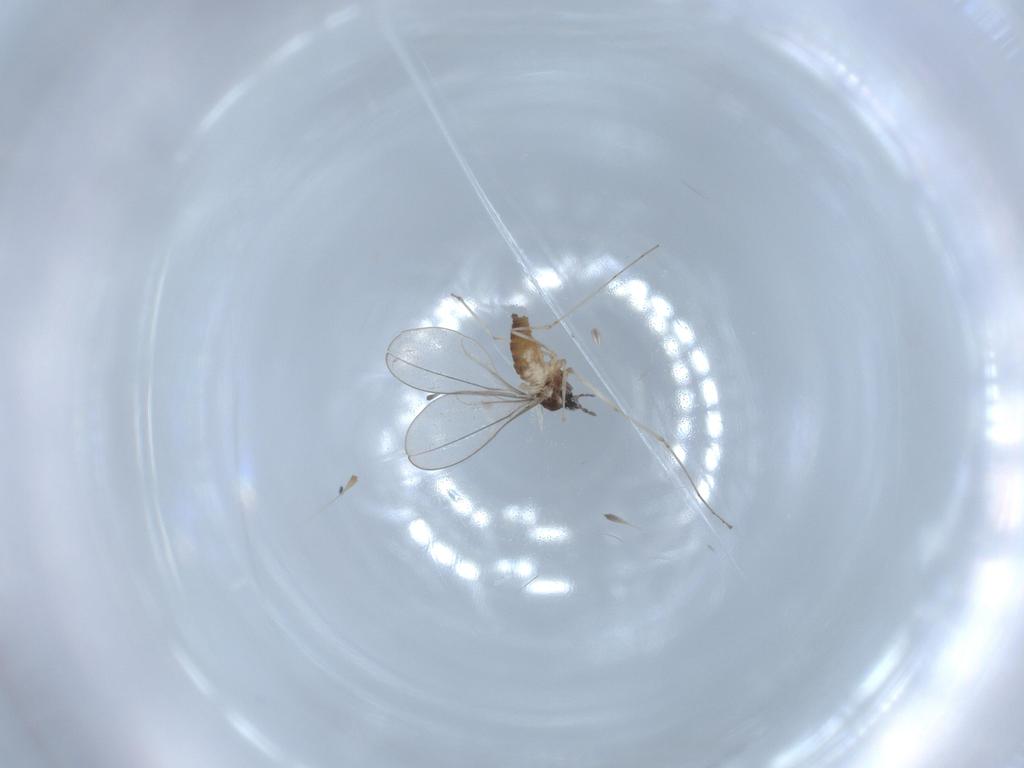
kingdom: Animalia
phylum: Arthropoda
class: Insecta
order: Diptera
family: Cecidomyiidae
